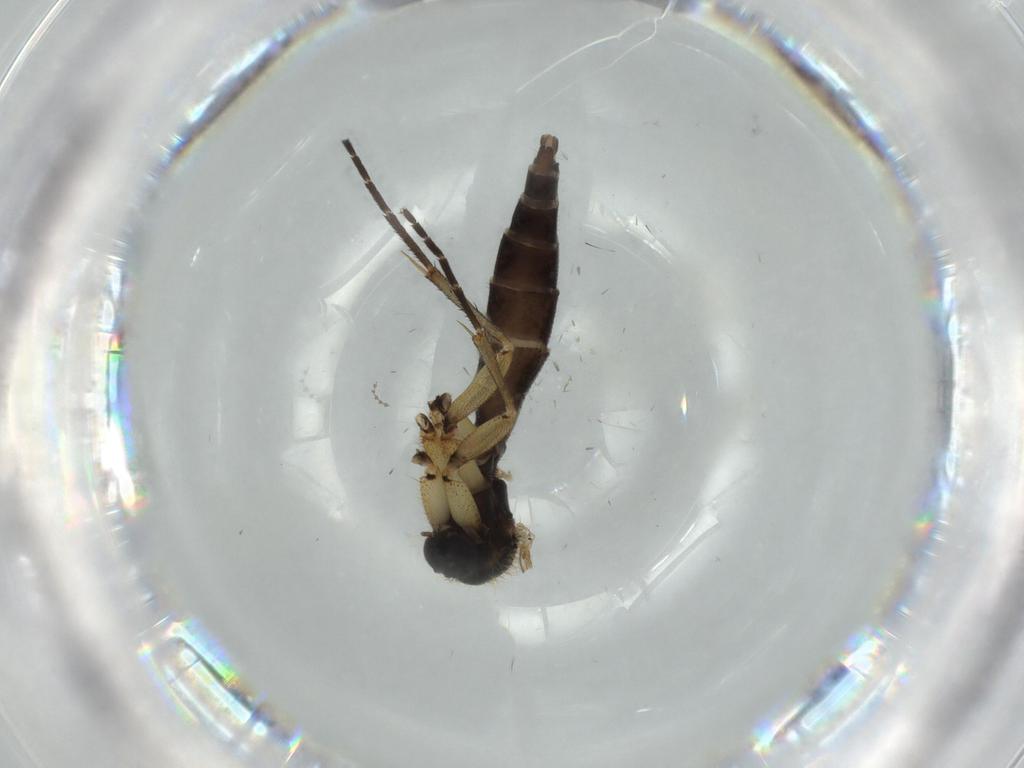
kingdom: Animalia
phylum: Arthropoda
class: Insecta
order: Diptera
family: Mycetophilidae
